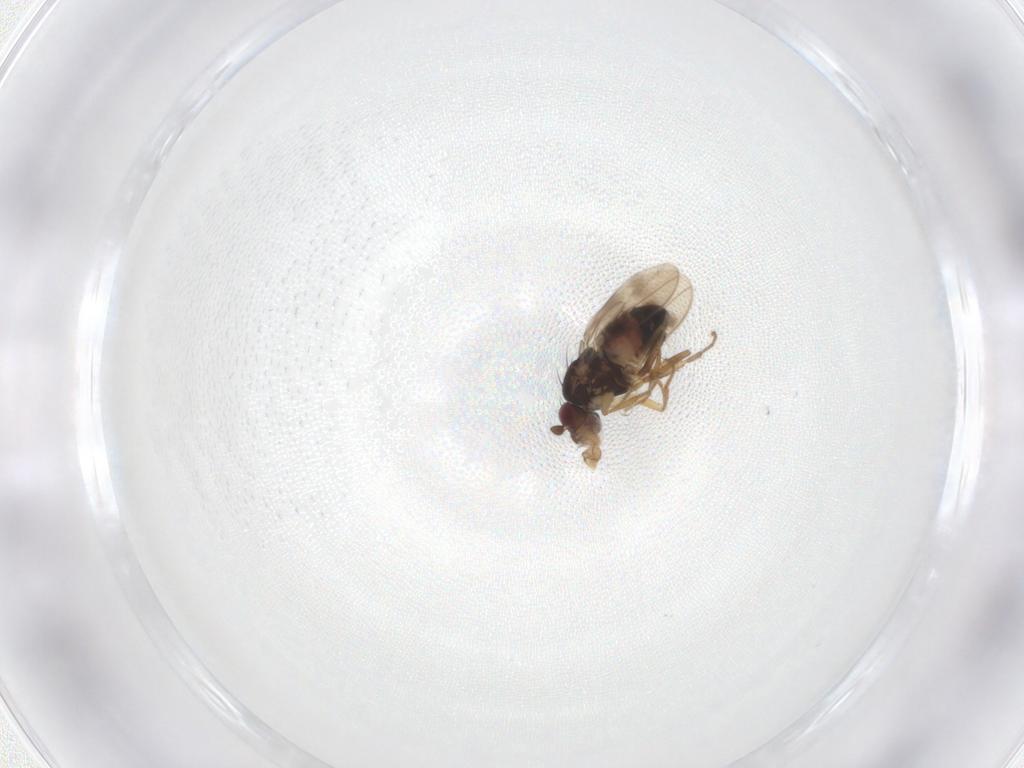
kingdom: Animalia
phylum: Arthropoda
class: Insecta
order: Diptera
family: Sphaeroceridae
